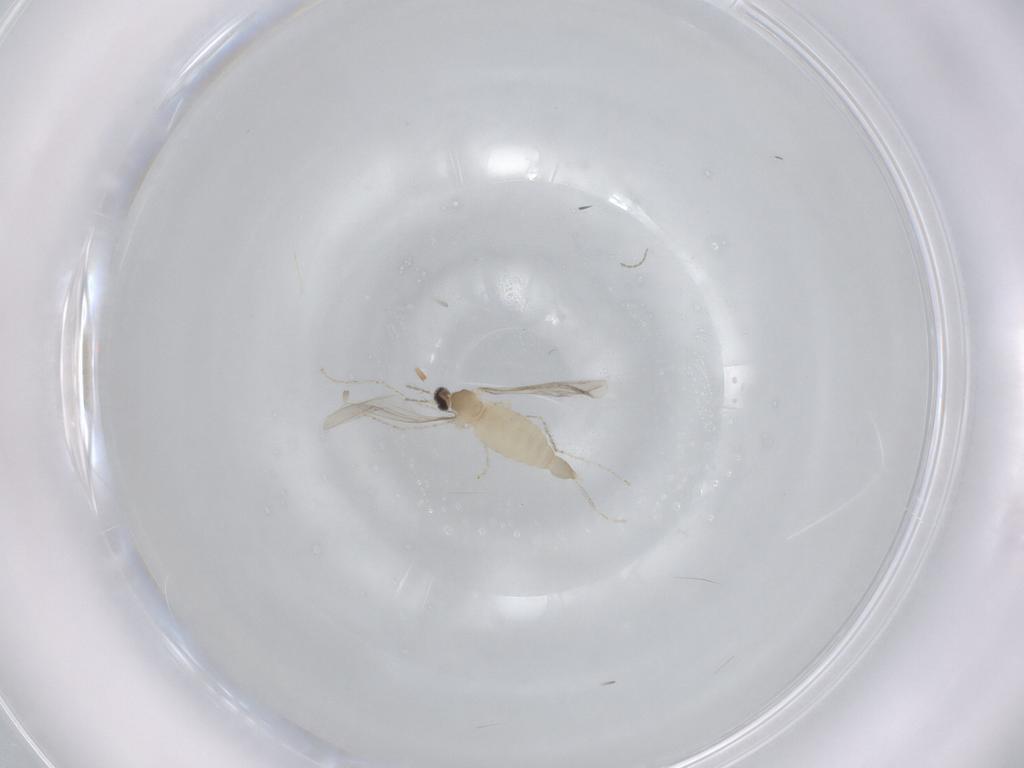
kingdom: Animalia
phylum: Arthropoda
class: Insecta
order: Diptera
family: Cecidomyiidae
